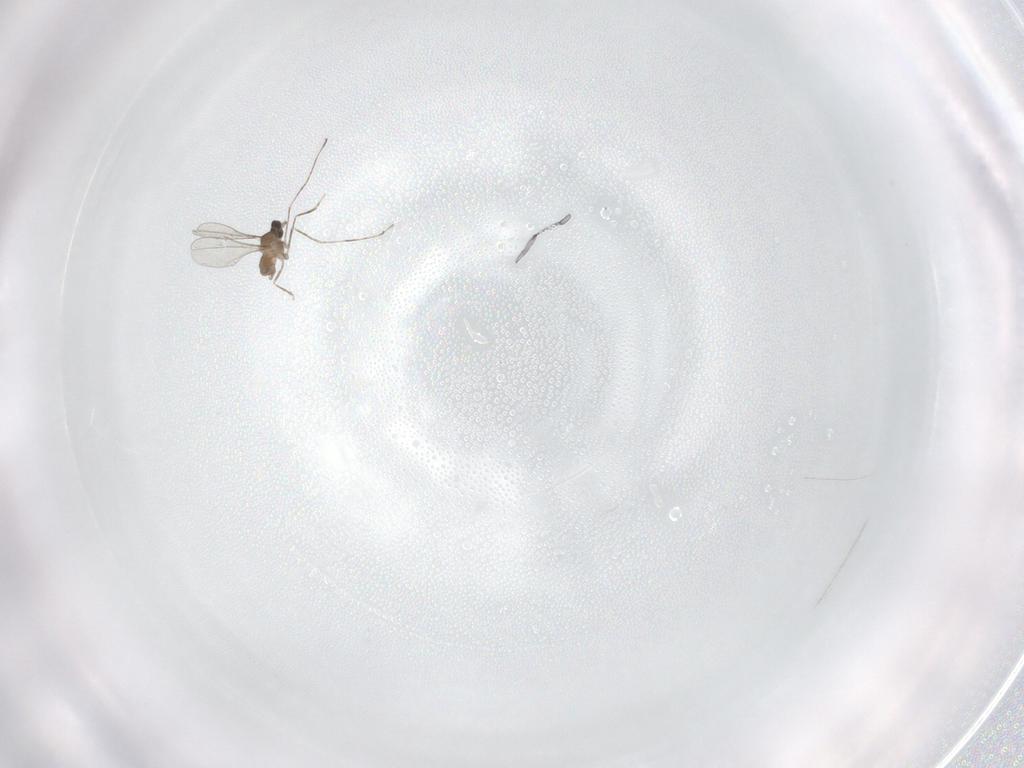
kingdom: Animalia
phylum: Arthropoda
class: Insecta
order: Diptera
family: Cecidomyiidae
